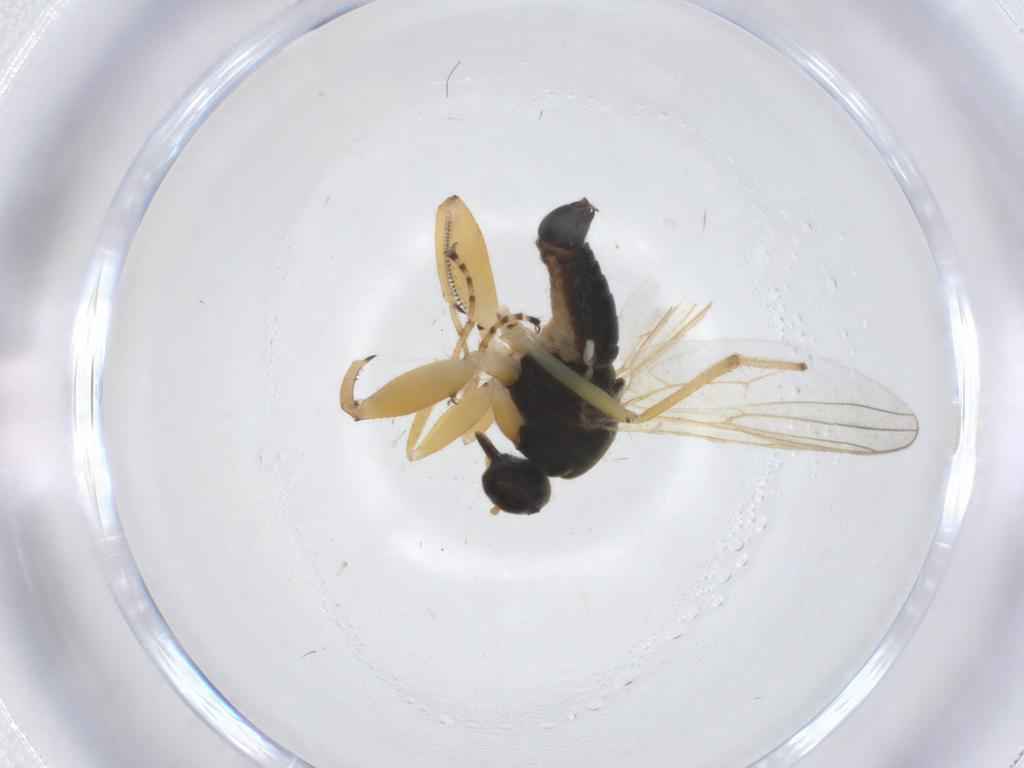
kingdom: Animalia
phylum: Arthropoda
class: Insecta
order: Diptera
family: Hybotidae
